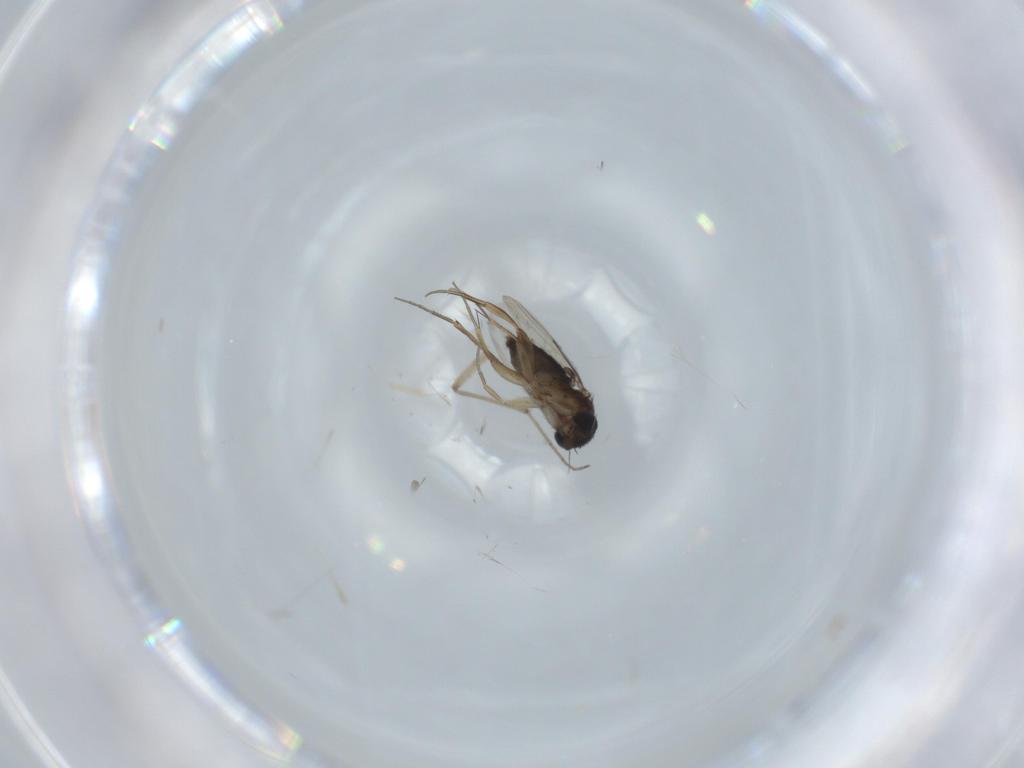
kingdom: Animalia
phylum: Arthropoda
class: Insecta
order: Diptera
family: Chironomidae
